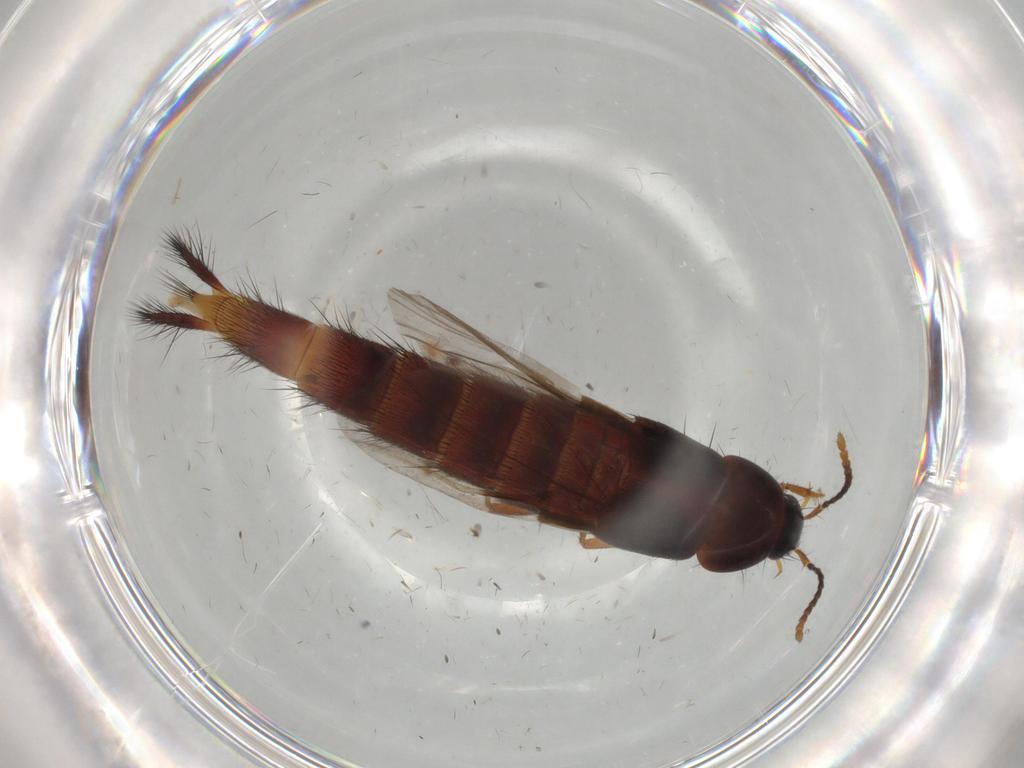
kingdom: Animalia
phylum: Arthropoda
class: Insecta
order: Coleoptera
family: Staphylinidae
